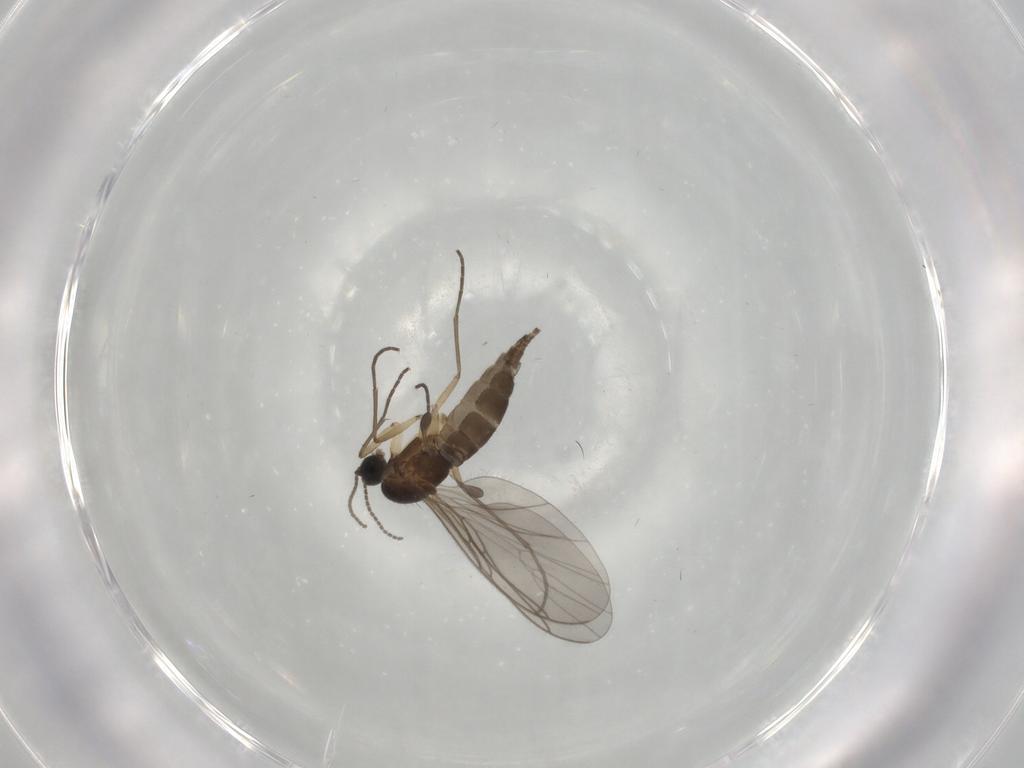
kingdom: Animalia
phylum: Arthropoda
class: Insecta
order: Diptera
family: Sciaridae
